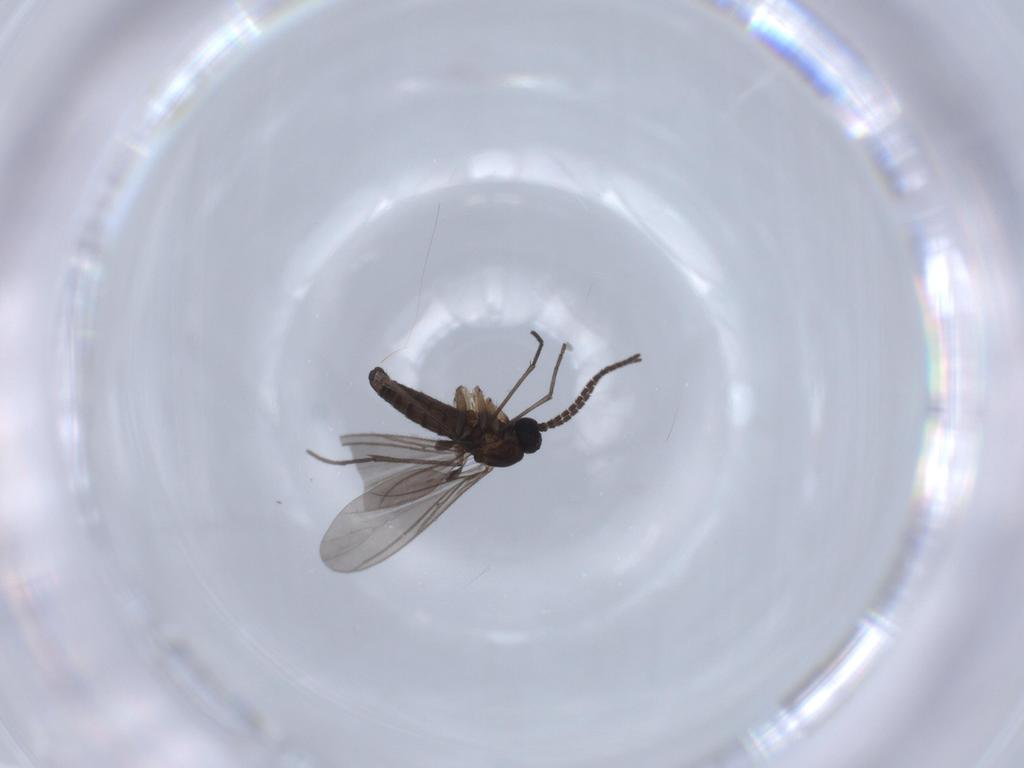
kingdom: Animalia
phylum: Arthropoda
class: Insecta
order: Diptera
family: Sciaridae
